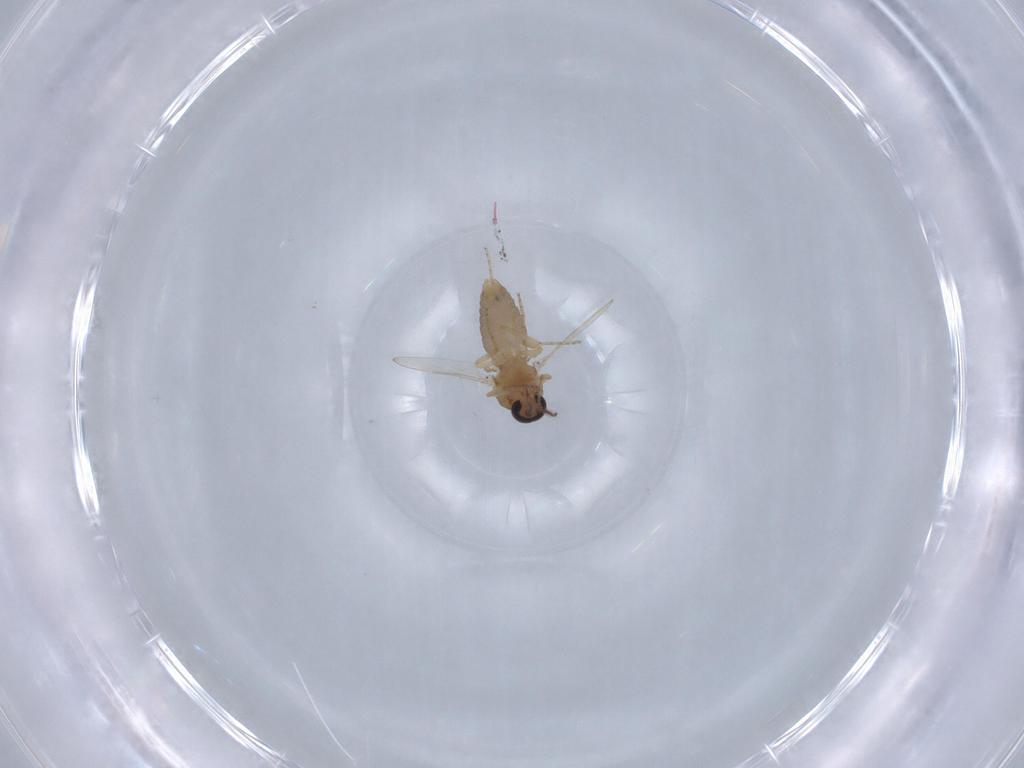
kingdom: Animalia
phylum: Arthropoda
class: Insecta
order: Diptera
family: Ceratopogonidae
